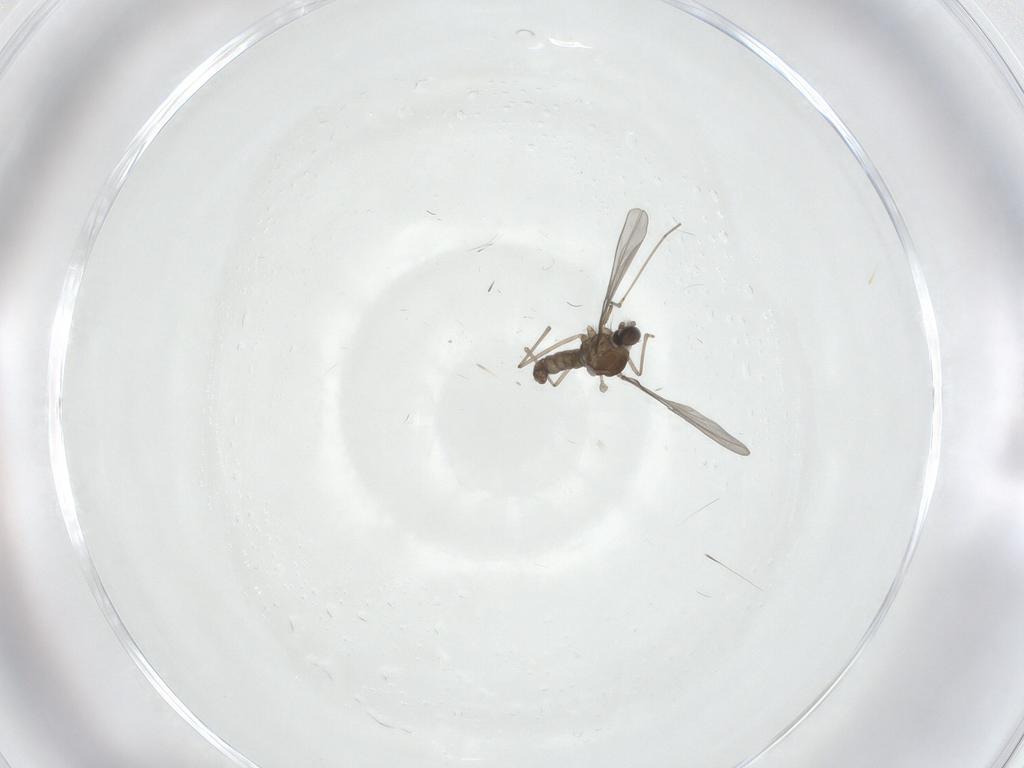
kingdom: Animalia
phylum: Arthropoda
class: Insecta
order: Diptera
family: Cecidomyiidae
